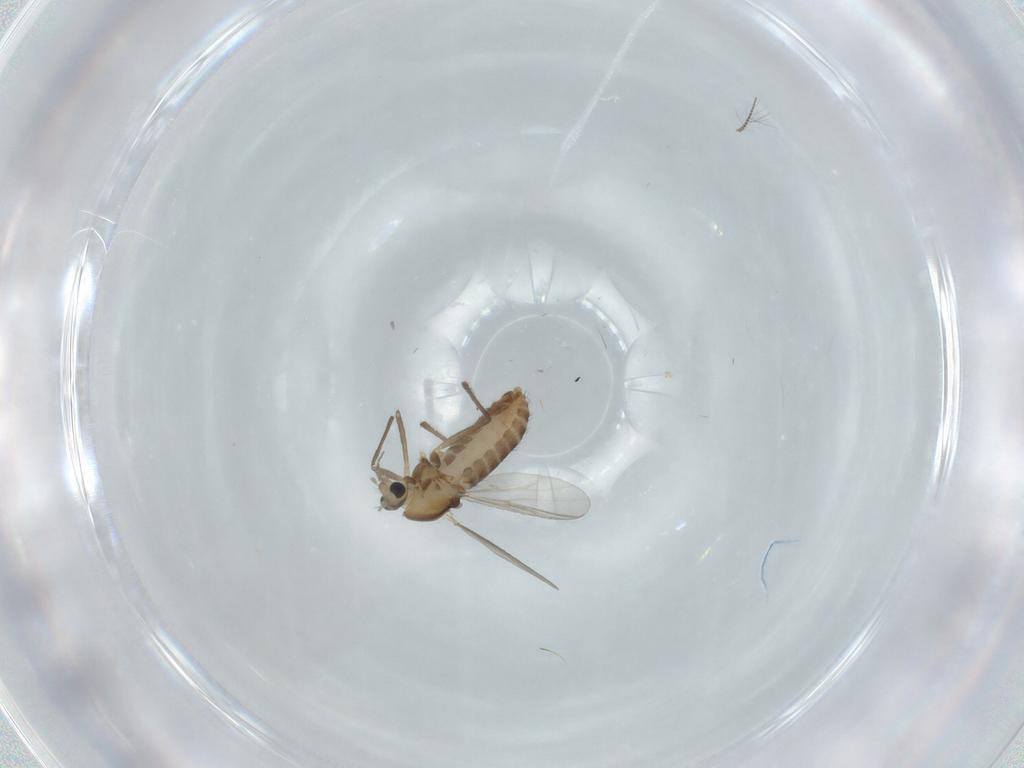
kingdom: Animalia
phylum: Arthropoda
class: Insecta
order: Diptera
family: Chironomidae
